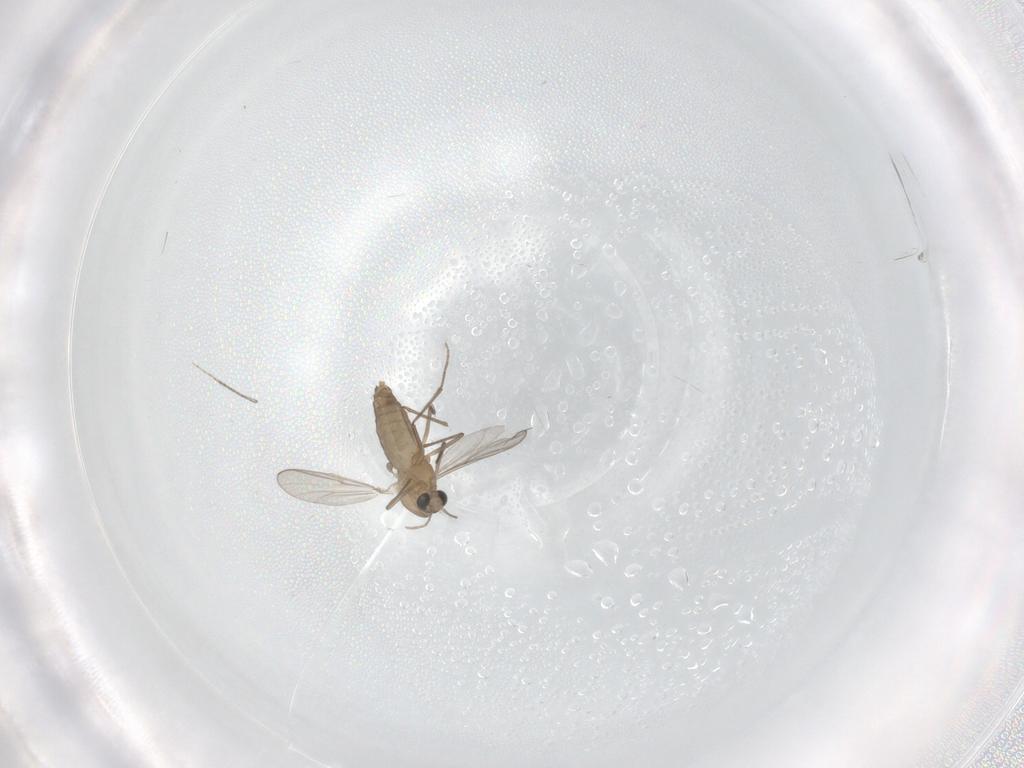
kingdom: Animalia
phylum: Arthropoda
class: Insecta
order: Diptera
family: Chironomidae
